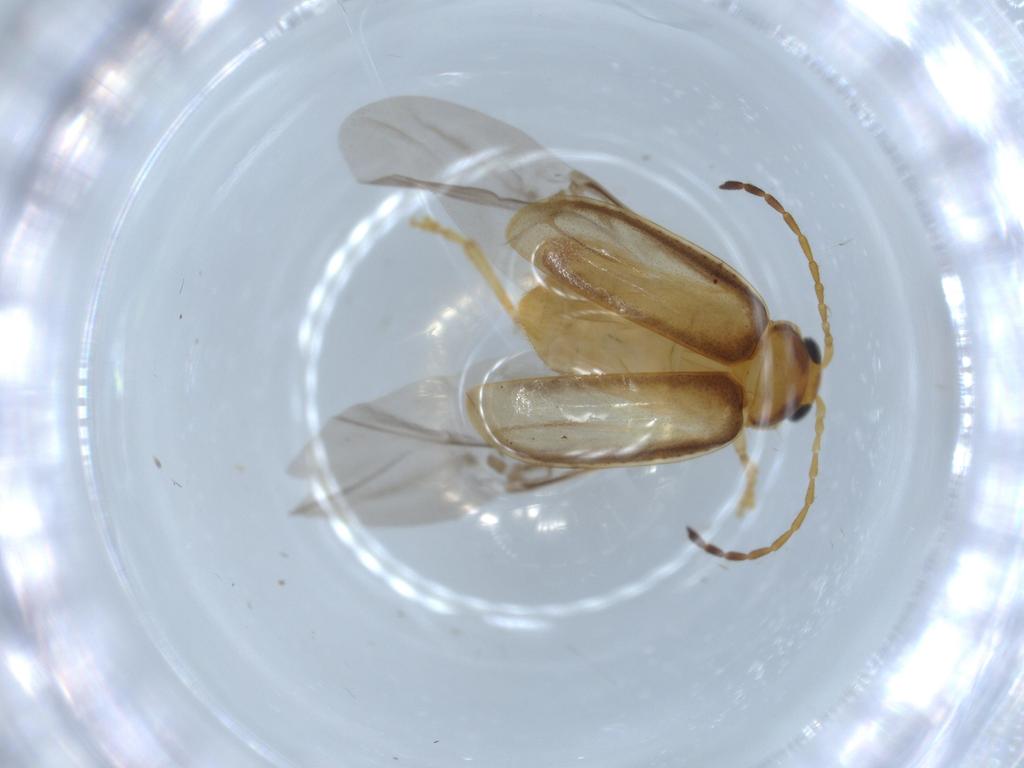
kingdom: Animalia
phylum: Arthropoda
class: Insecta
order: Coleoptera
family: Chrysomelidae
